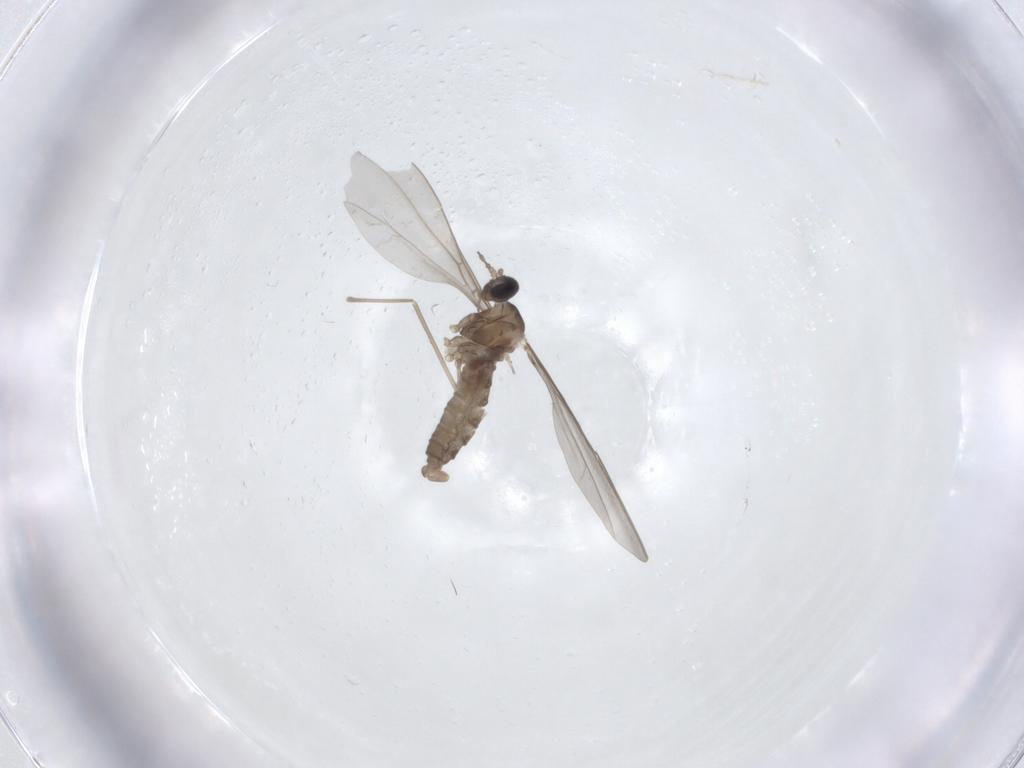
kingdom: Animalia
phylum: Arthropoda
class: Insecta
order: Diptera
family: Cecidomyiidae
